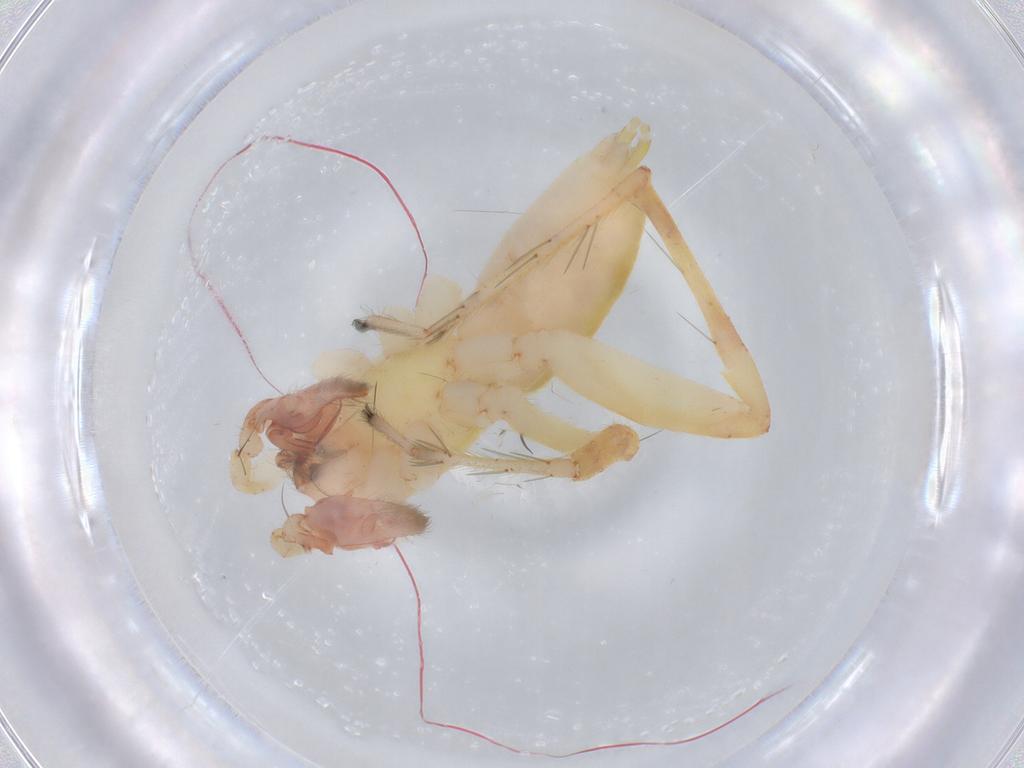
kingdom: Animalia
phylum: Arthropoda
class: Arachnida
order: Araneae
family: Anyphaenidae
